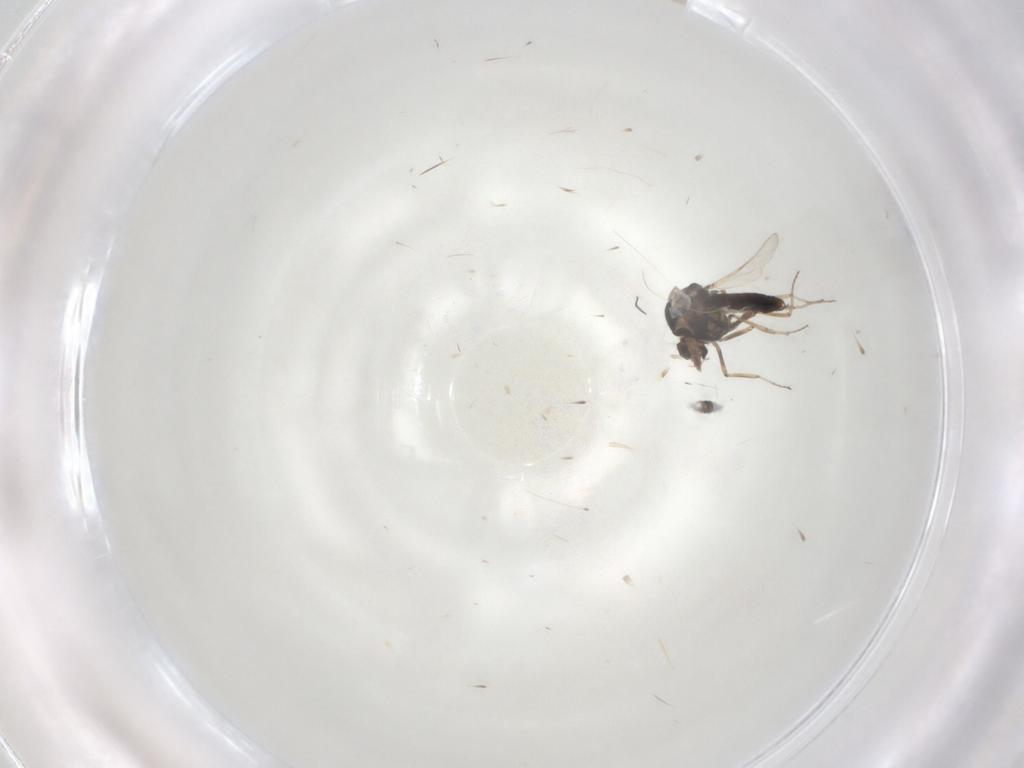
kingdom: Animalia
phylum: Arthropoda
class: Insecta
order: Diptera
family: Ceratopogonidae
